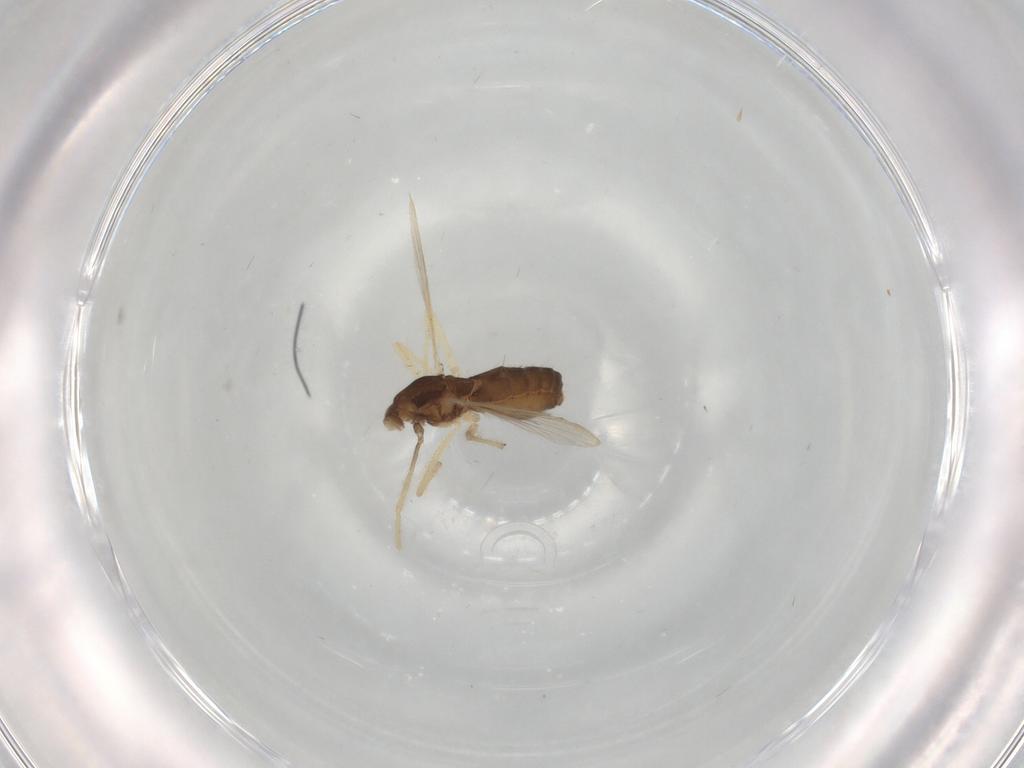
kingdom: Animalia
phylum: Arthropoda
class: Insecta
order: Diptera
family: Chironomidae
